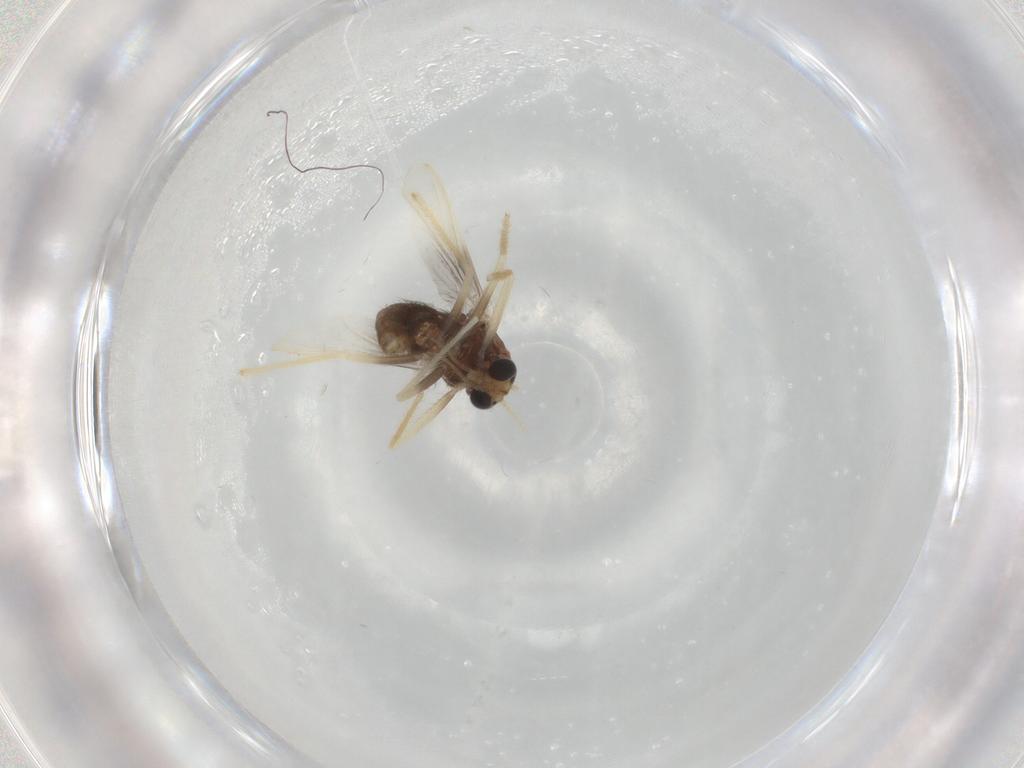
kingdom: Animalia
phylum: Arthropoda
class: Insecta
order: Diptera
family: Chironomidae
